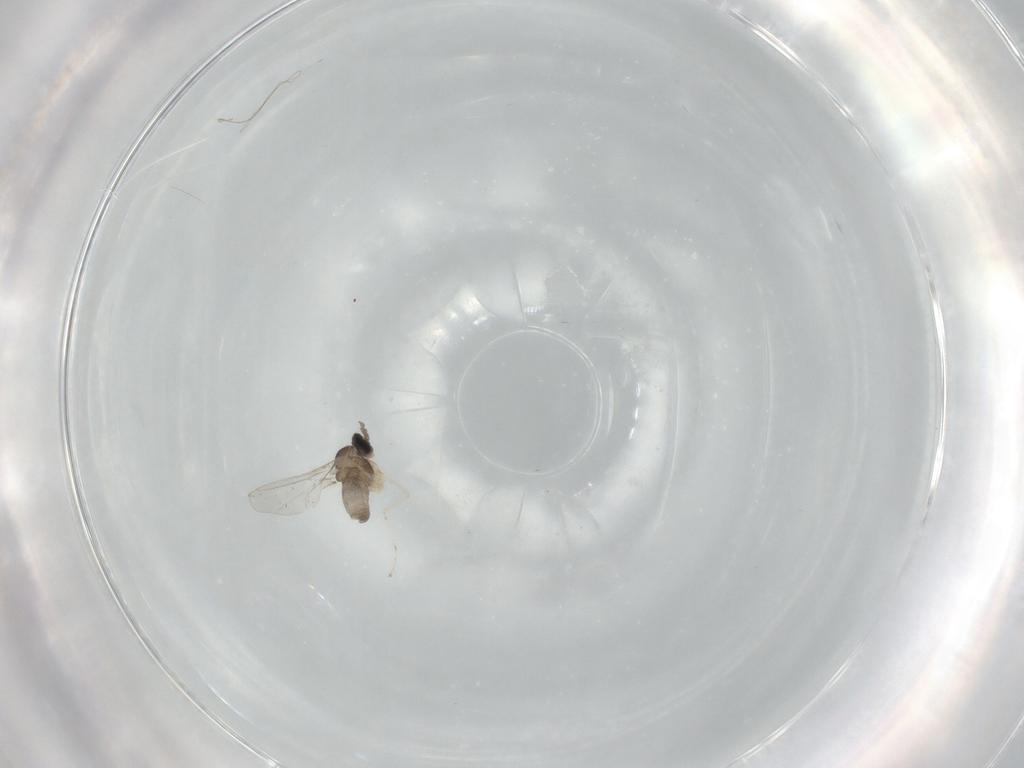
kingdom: Animalia
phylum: Arthropoda
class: Insecta
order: Diptera
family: Cecidomyiidae
